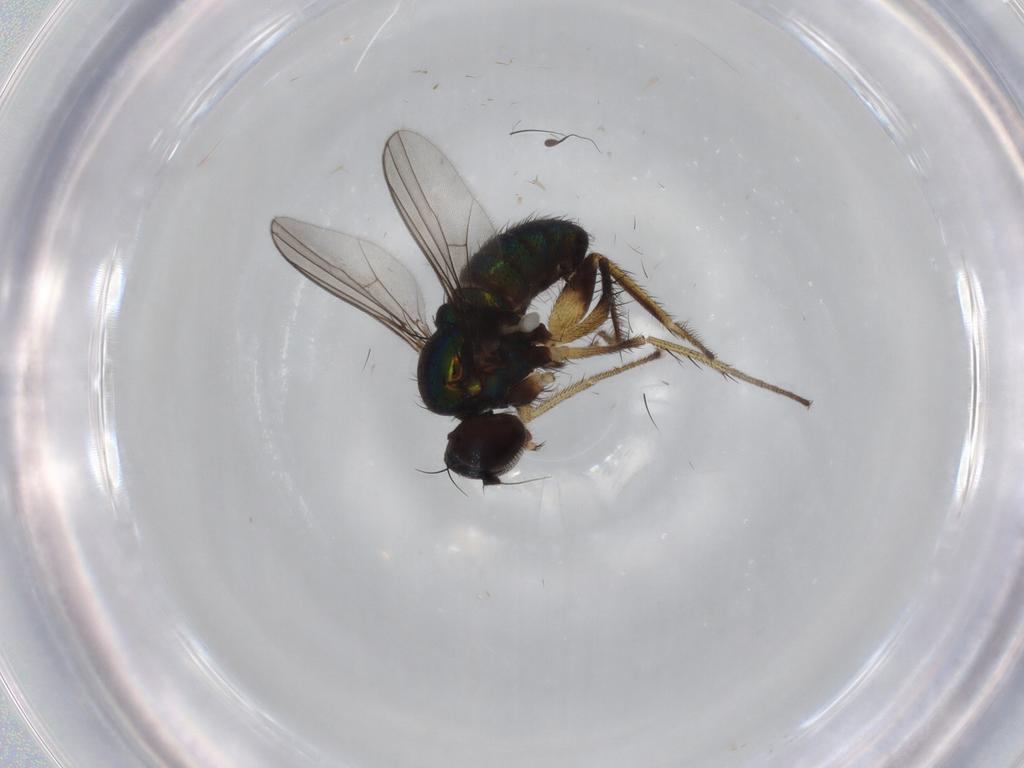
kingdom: Animalia
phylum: Arthropoda
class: Insecta
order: Diptera
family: Dolichopodidae
